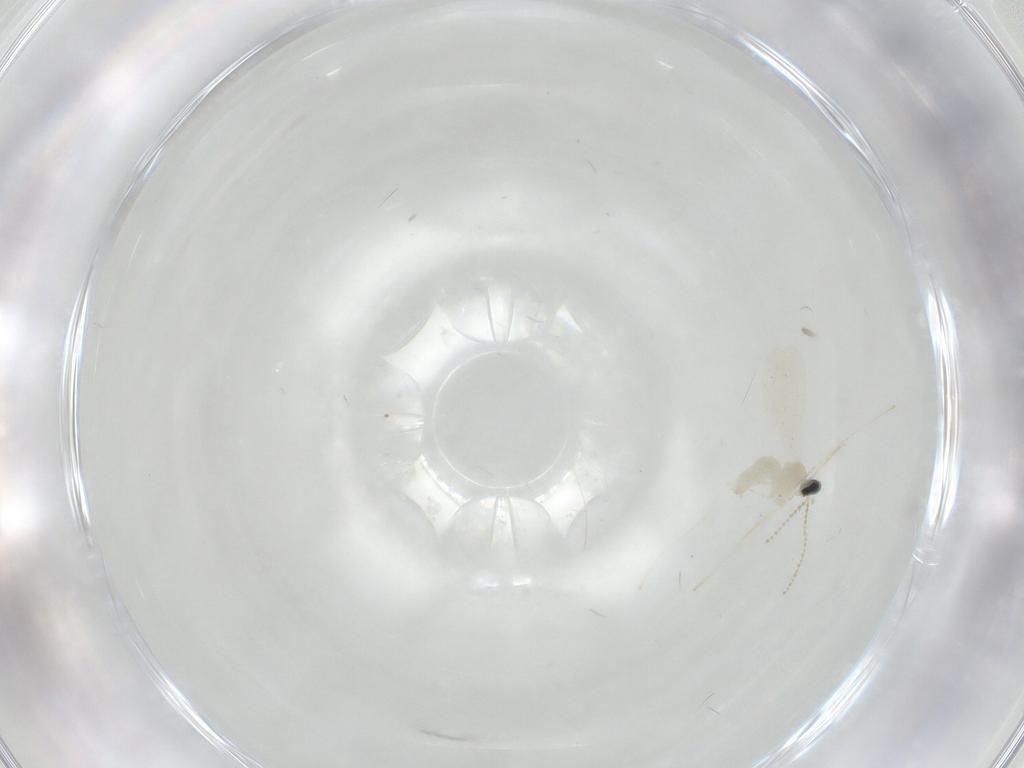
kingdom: Animalia
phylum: Arthropoda
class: Insecta
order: Diptera
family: Cecidomyiidae
